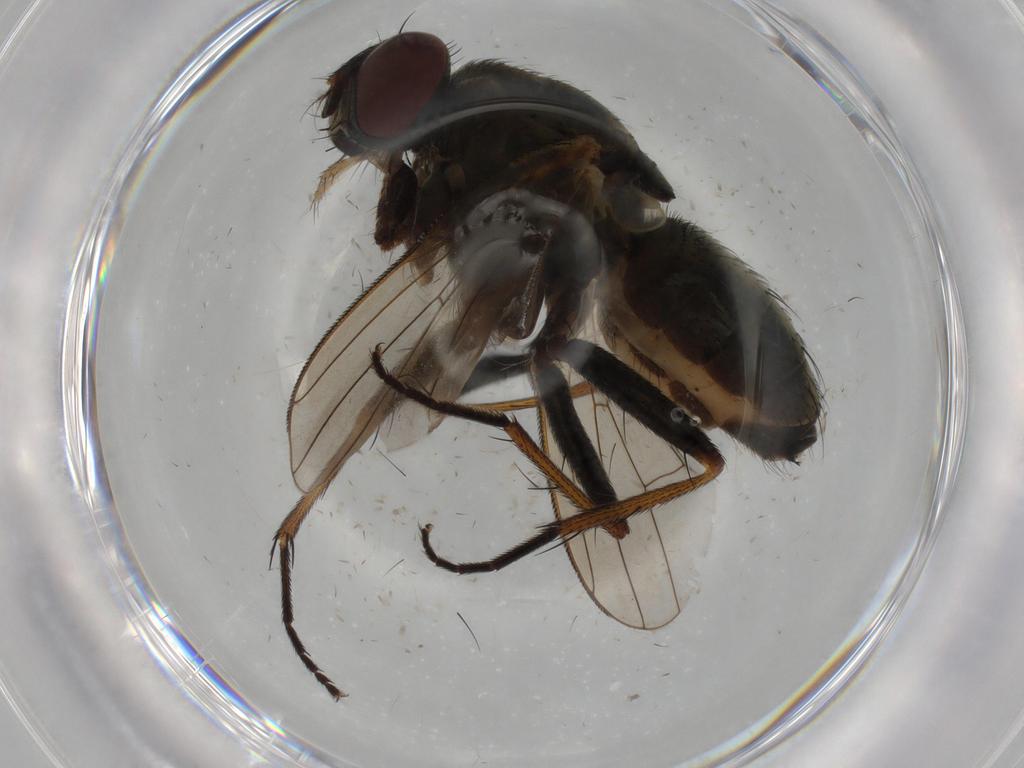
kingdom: Animalia
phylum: Arthropoda
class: Insecta
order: Diptera
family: Muscidae
